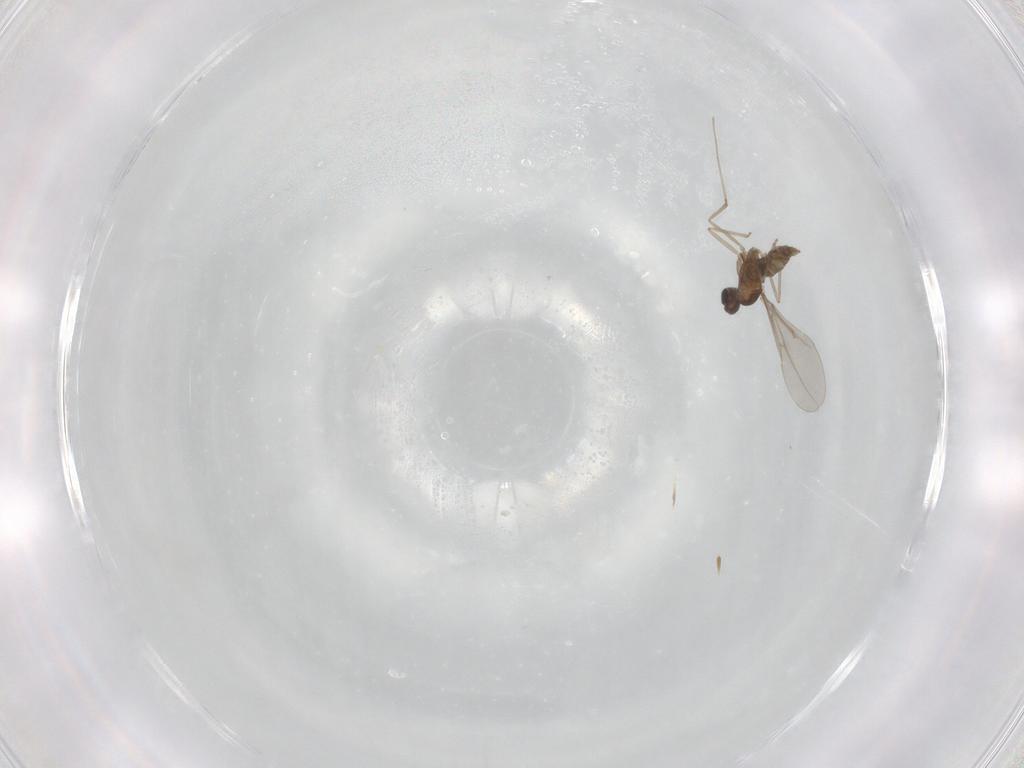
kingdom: Animalia
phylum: Arthropoda
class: Insecta
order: Diptera
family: Cecidomyiidae
